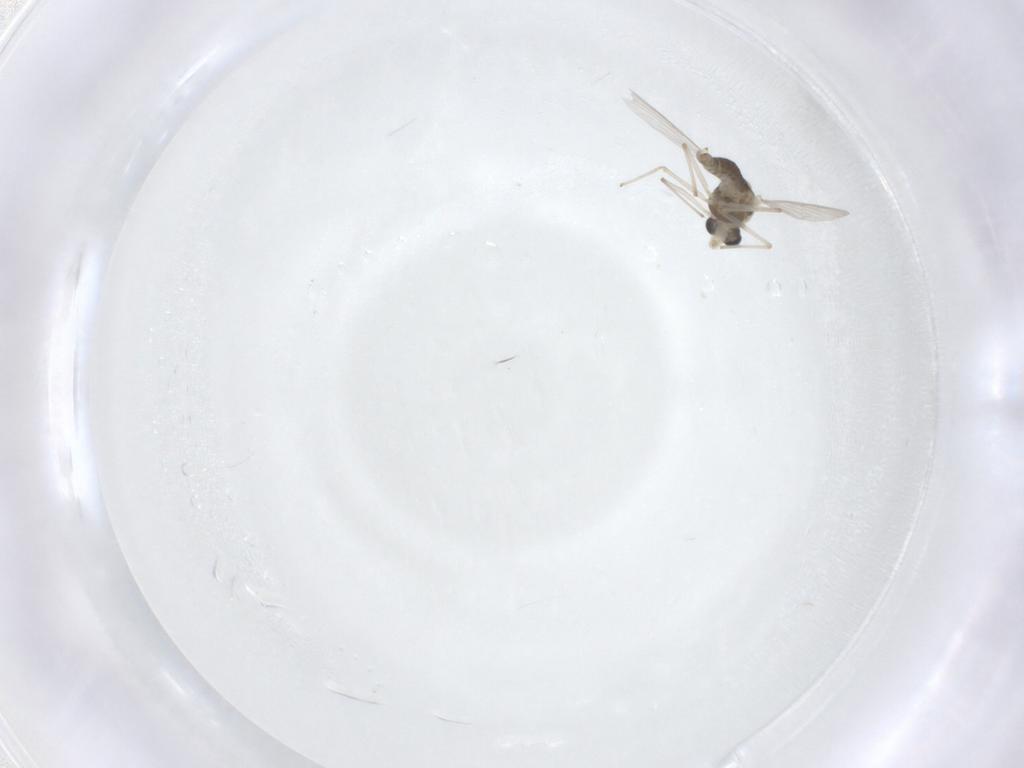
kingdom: Animalia
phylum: Arthropoda
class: Insecta
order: Diptera
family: Chironomidae
